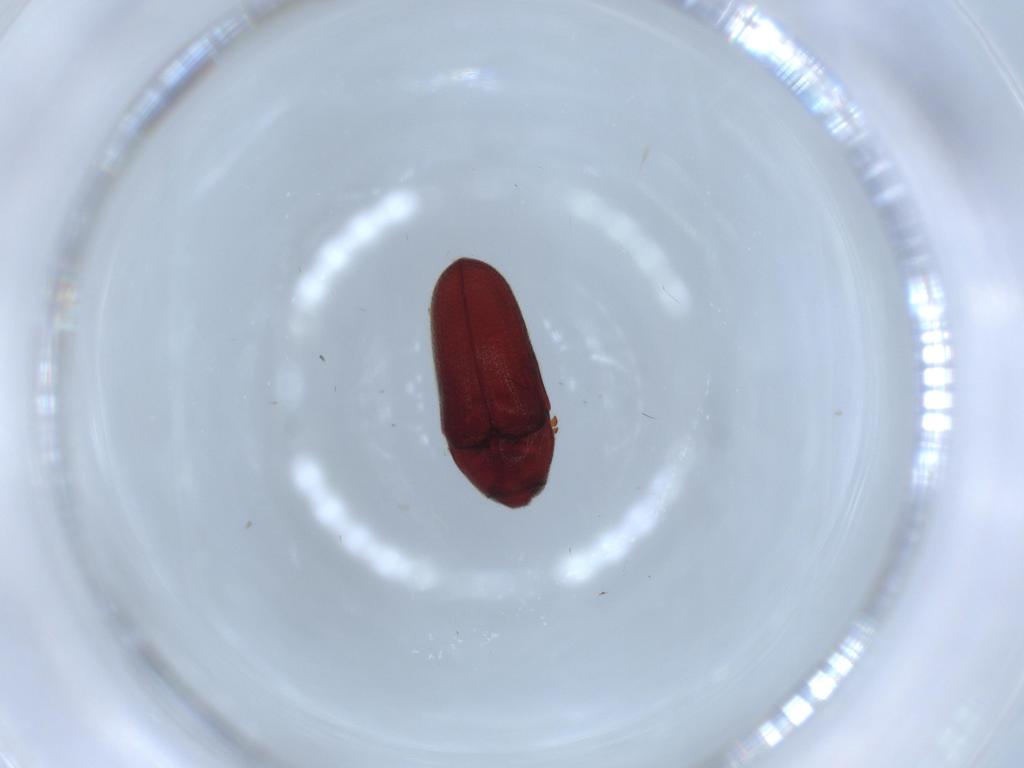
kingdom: Animalia
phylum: Arthropoda
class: Insecta
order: Coleoptera
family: Throscidae
